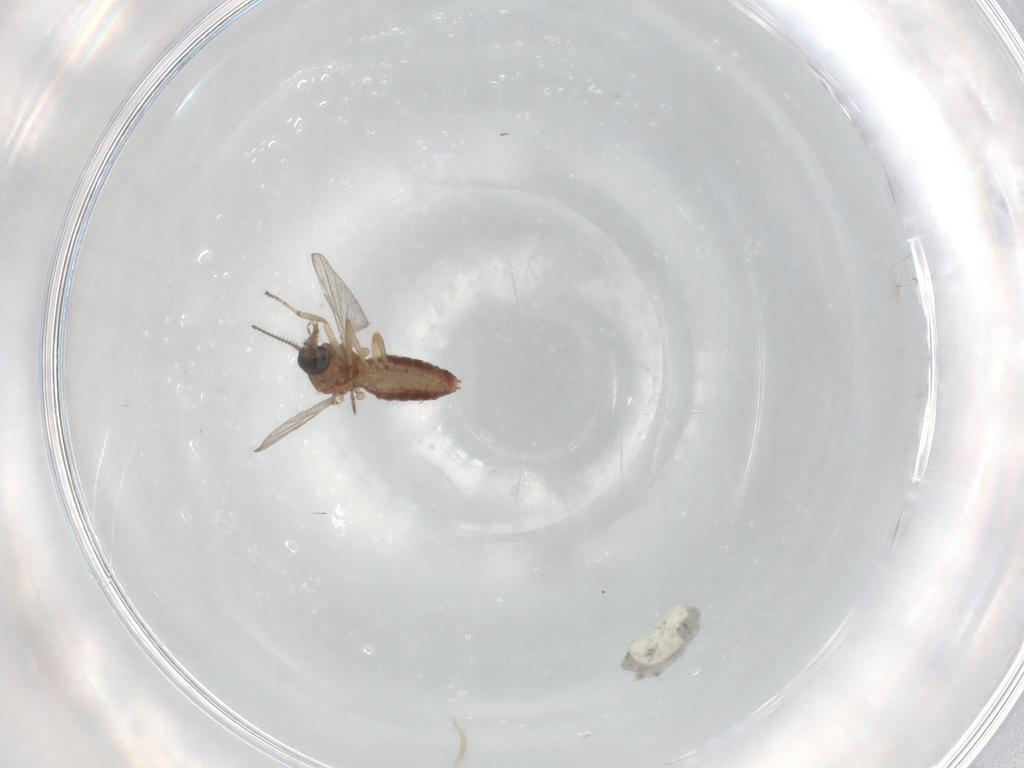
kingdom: Animalia
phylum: Arthropoda
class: Insecta
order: Diptera
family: Ceratopogonidae
